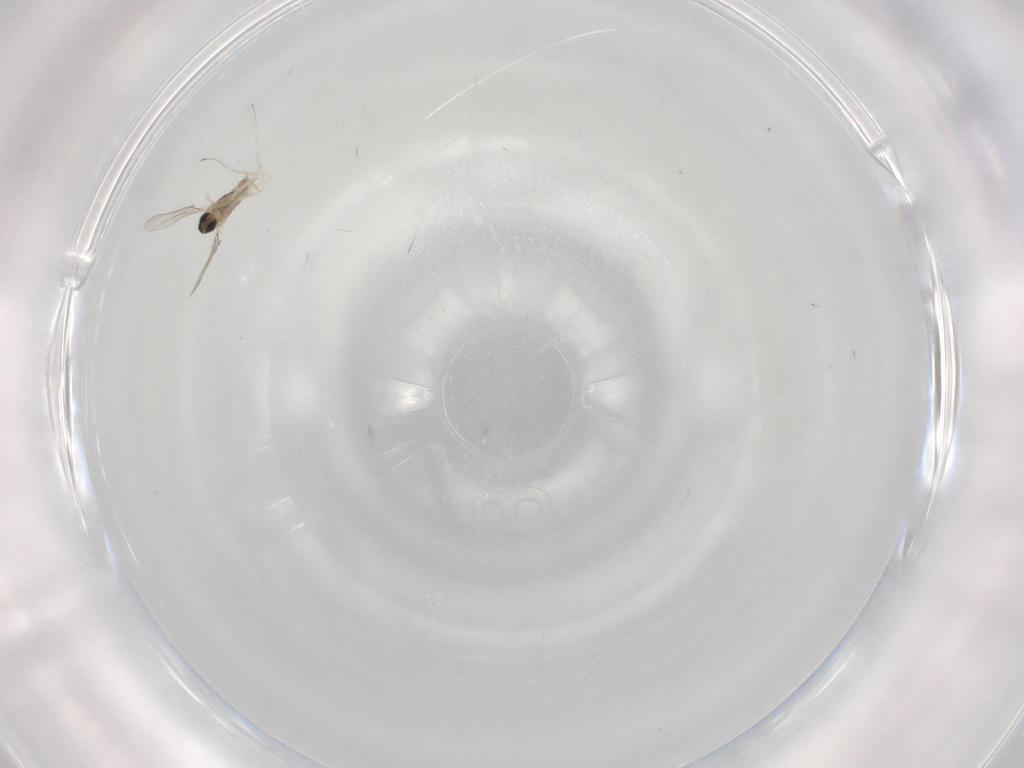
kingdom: Animalia
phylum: Arthropoda
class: Insecta
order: Diptera
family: Cecidomyiidae
